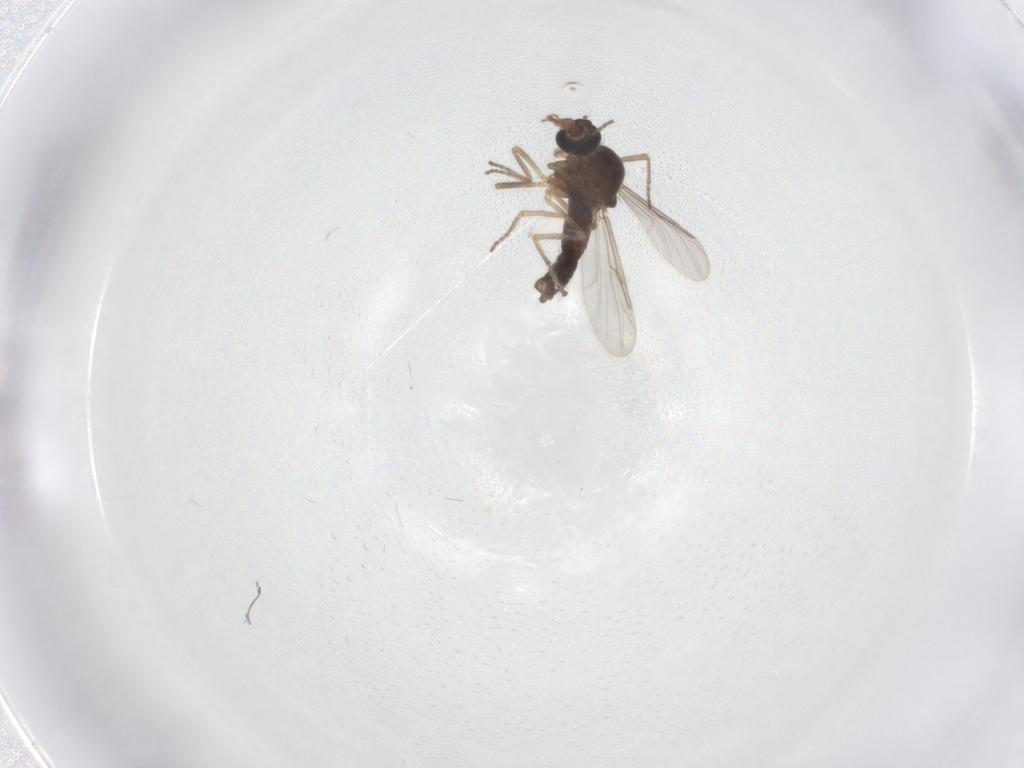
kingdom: Animalia
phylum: Arthropoda
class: Insecta
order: Diptera
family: Ceratopogonidae
